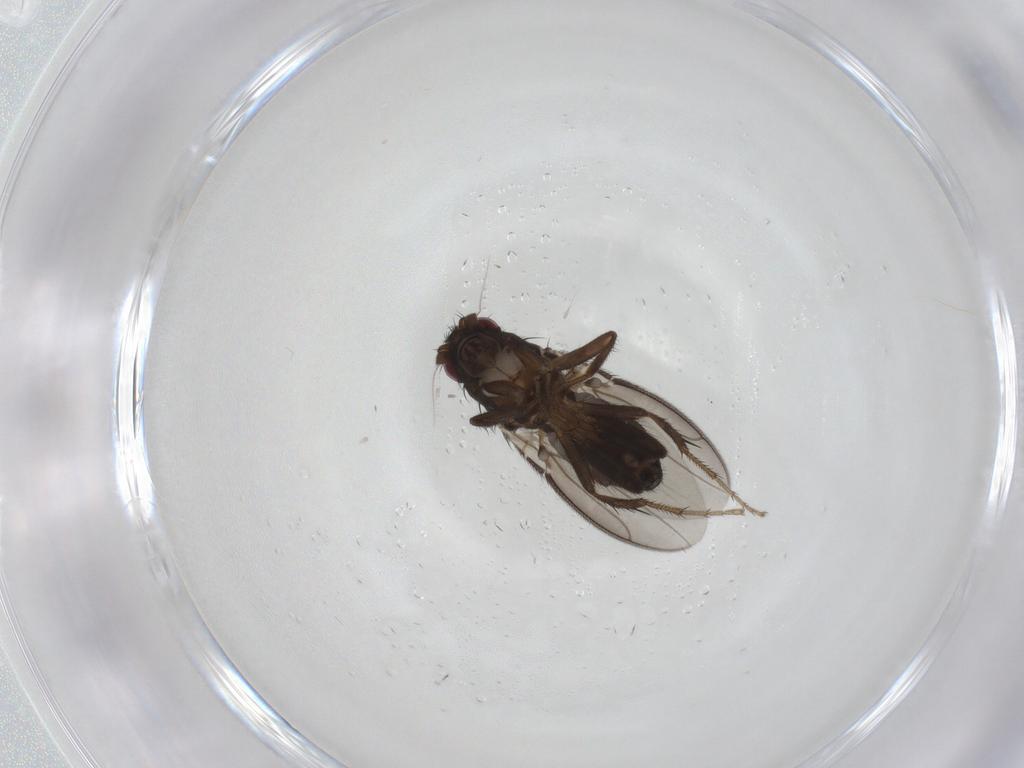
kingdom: Animalia
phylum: Arthropoda
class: Insecta
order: Diptera
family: Sphaeroceridae
